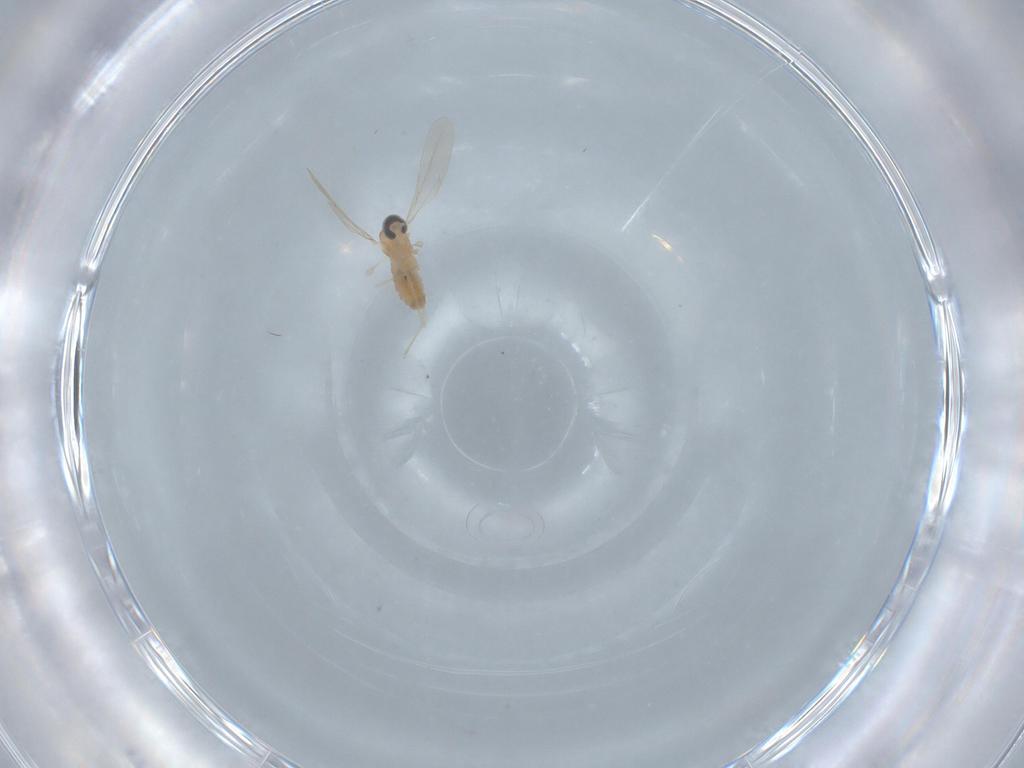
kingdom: Animalia
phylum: Arthropoda
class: Insecta
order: Diptera
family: Cecidomyiidae
